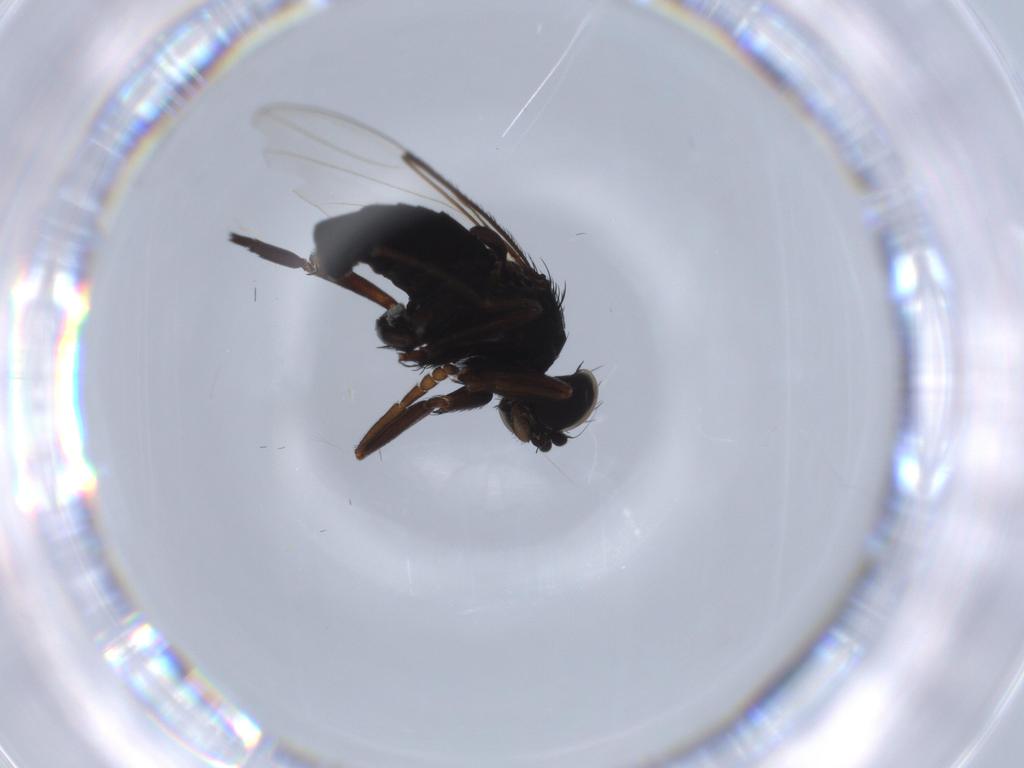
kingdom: Animalia
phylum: Arthropoda
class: Insecta
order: Diptera
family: Phoridae
